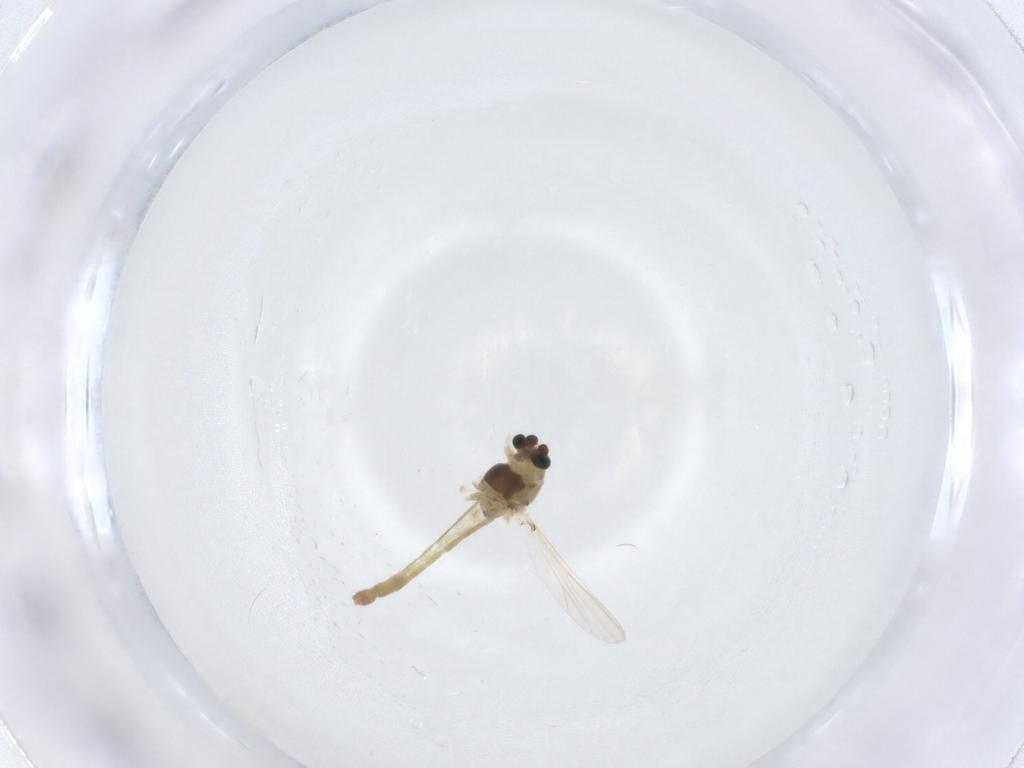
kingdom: Animalia
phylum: Arthropoda
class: Insecta
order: Diptera
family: Chironomidae
